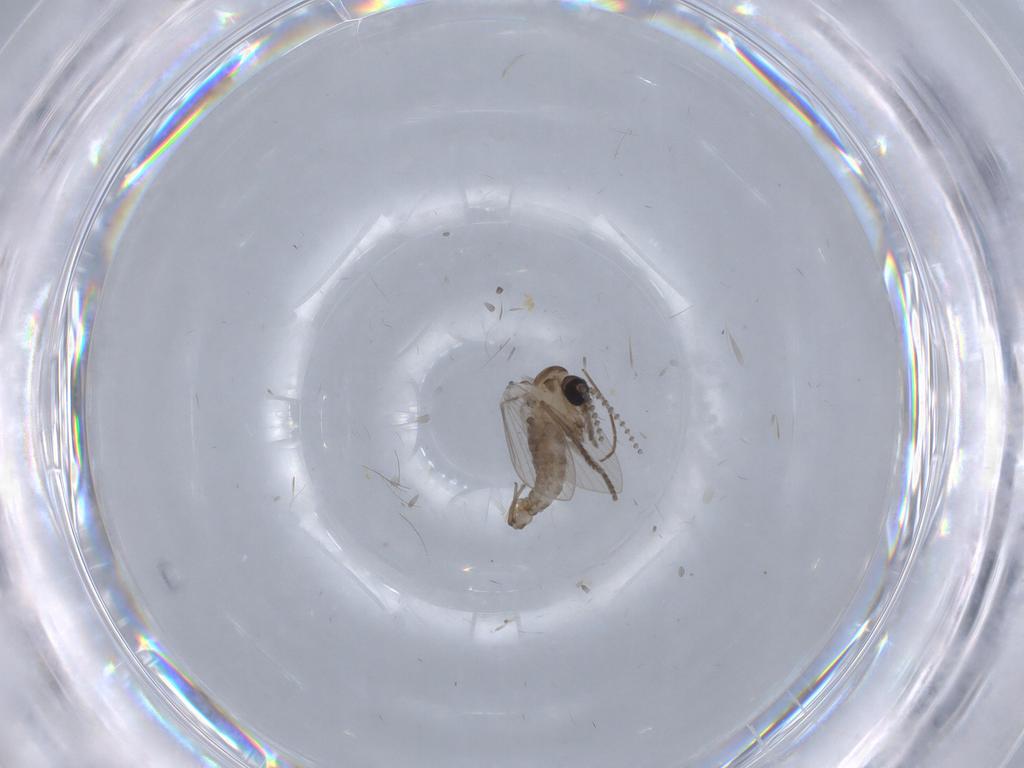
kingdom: Animalia
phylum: Arthropoda
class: Insecta
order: Diptera
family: Psychodidae
